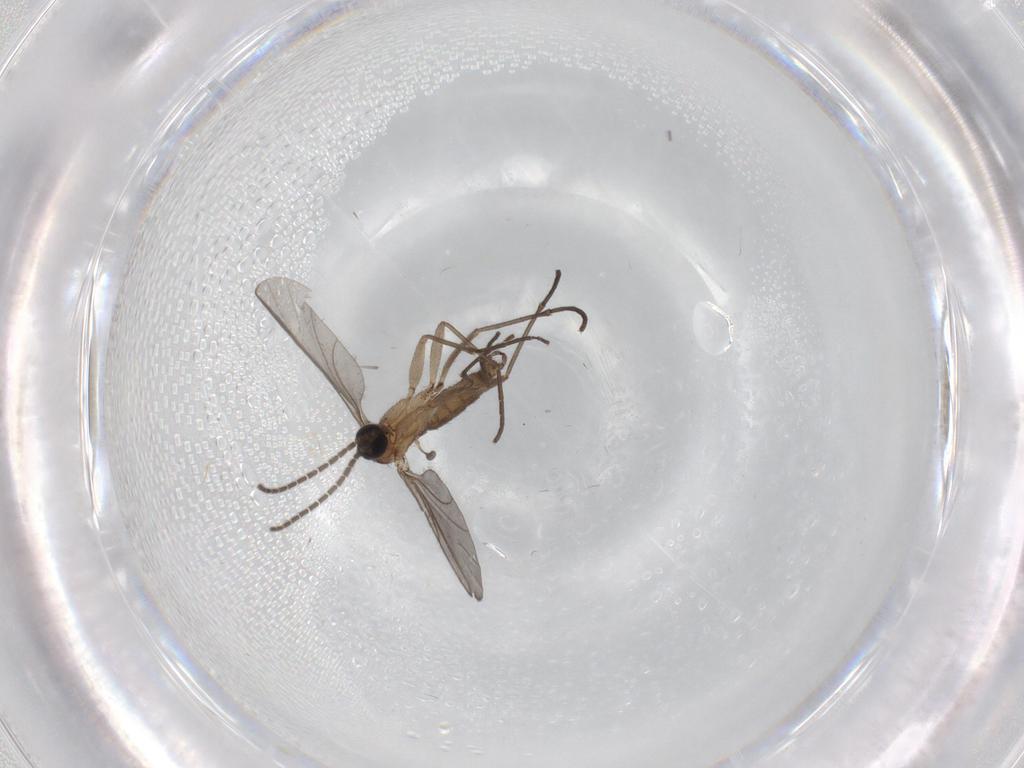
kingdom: Animalia
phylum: Arthropoda
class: Insecta
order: Diptera
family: Sciaridae
